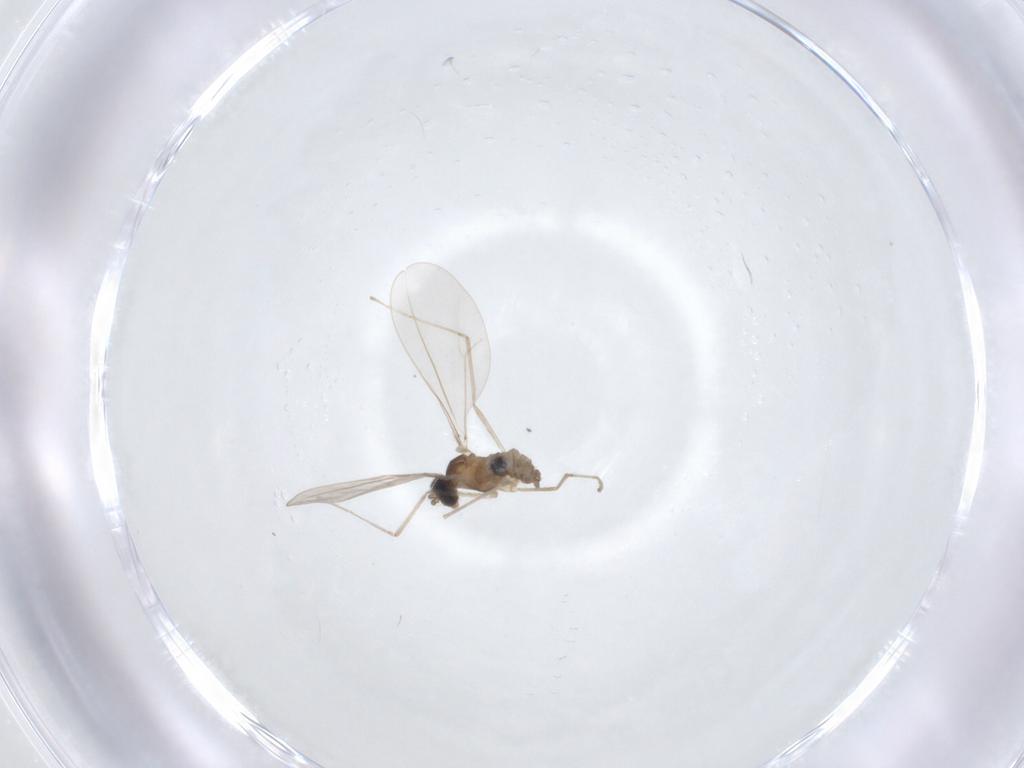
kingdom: Animalia
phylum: Arthropoda
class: Insecta
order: Diptera
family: Cecidomyiidae
